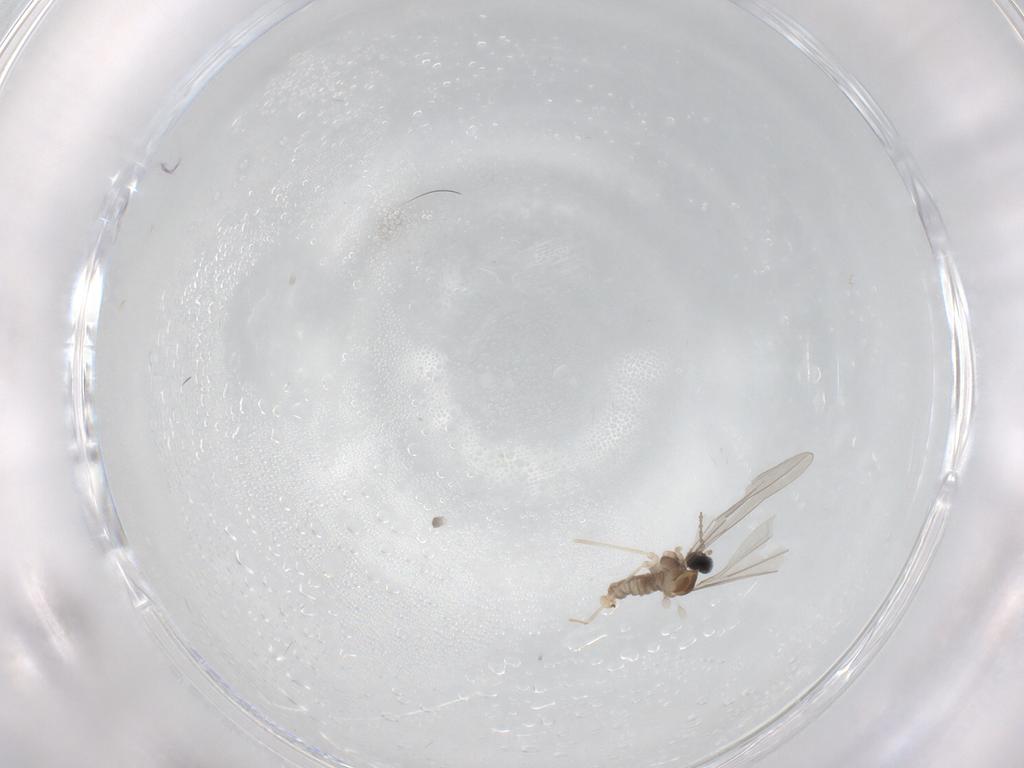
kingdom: Animalia
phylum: Arthropoda
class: Insecta
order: Diptera
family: Cecidomyiidae
